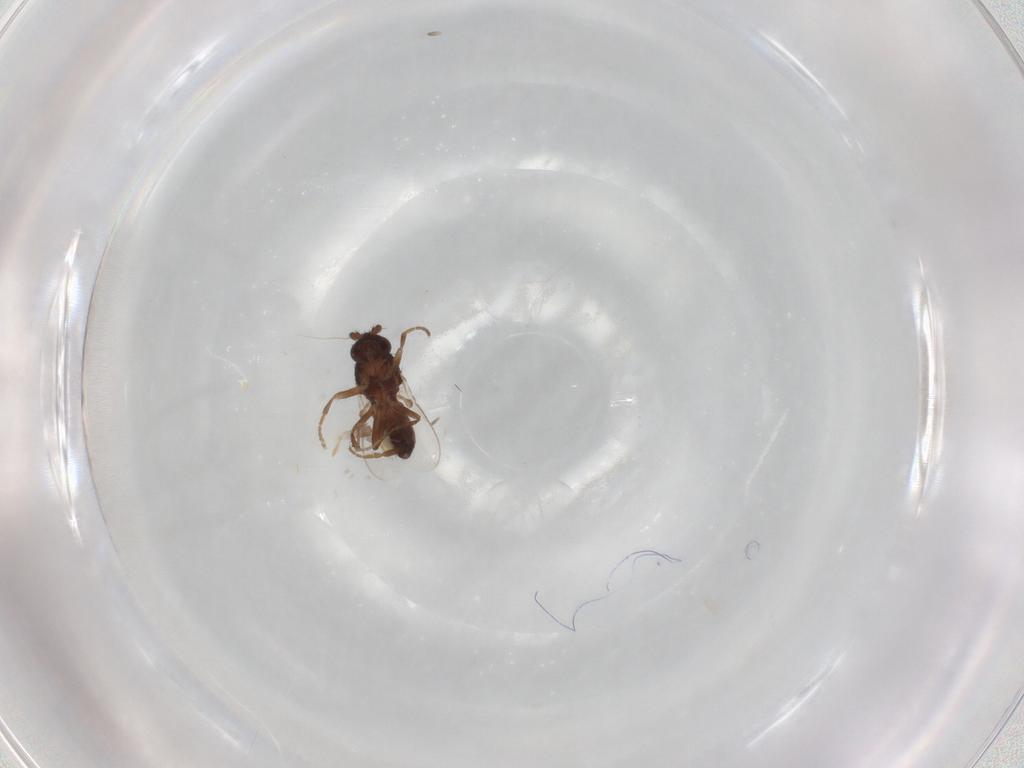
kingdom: Animalia
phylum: Arthropoda
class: Insecta
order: Diptera
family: Sphaeroceridae
